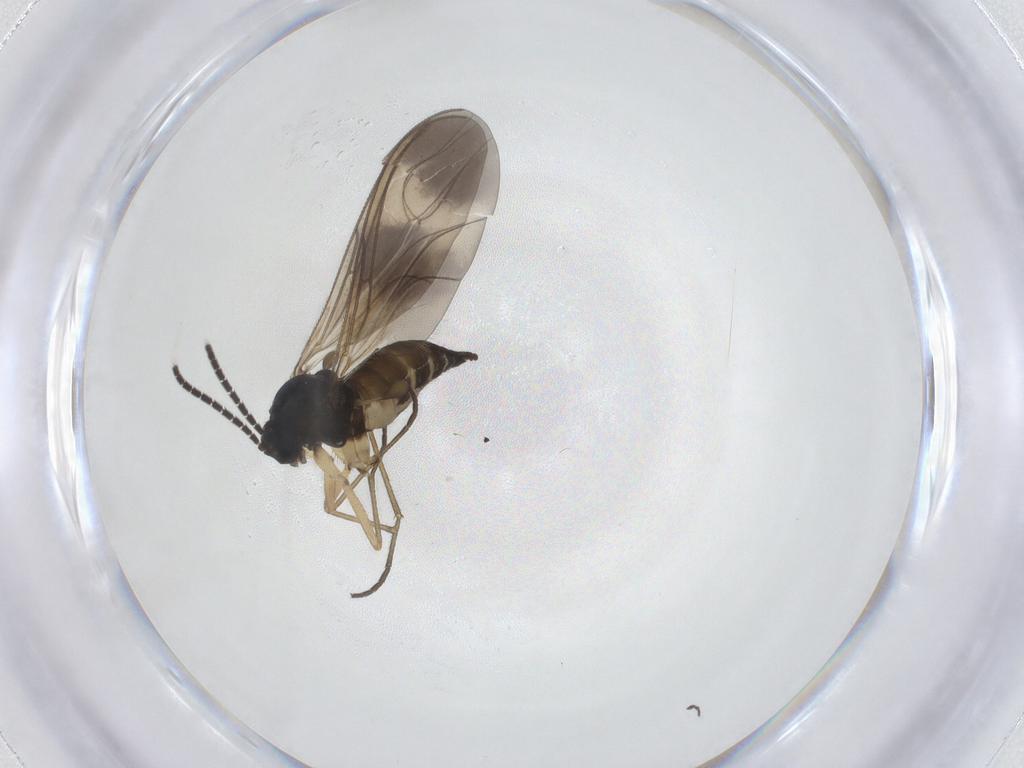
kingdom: Animalia
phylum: Arthropoda
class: Insecta
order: Diptera
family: Sciaridae
